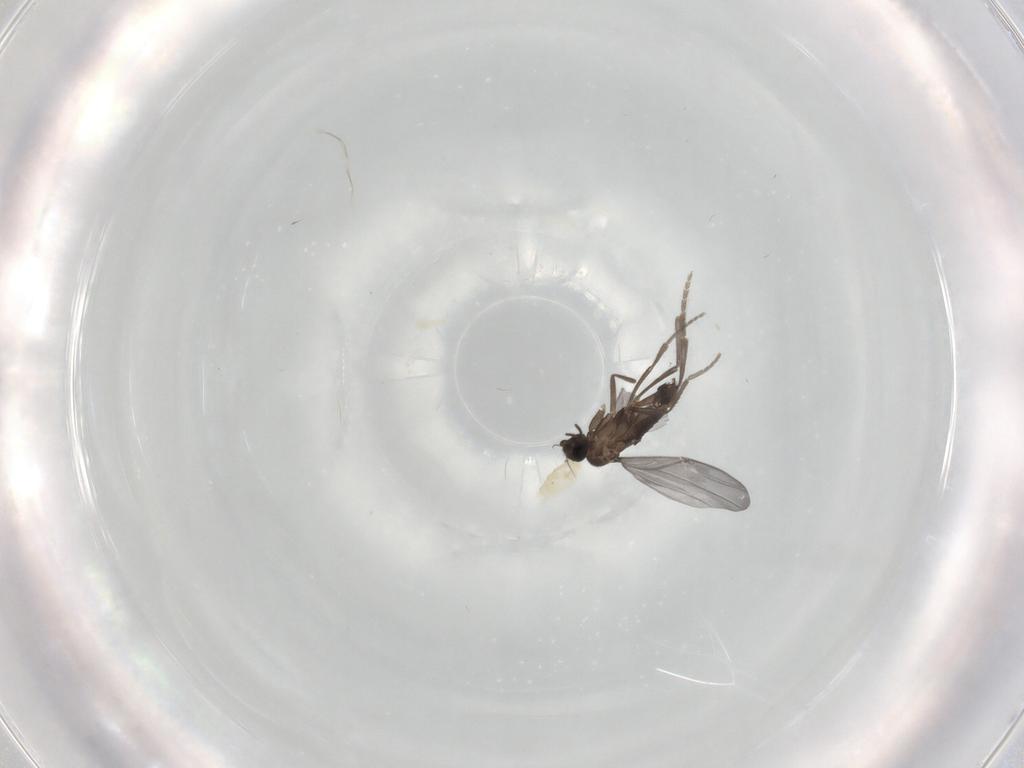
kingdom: Animalia
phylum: Arthropoda
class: Insecta
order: Diptera
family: Phoridae
